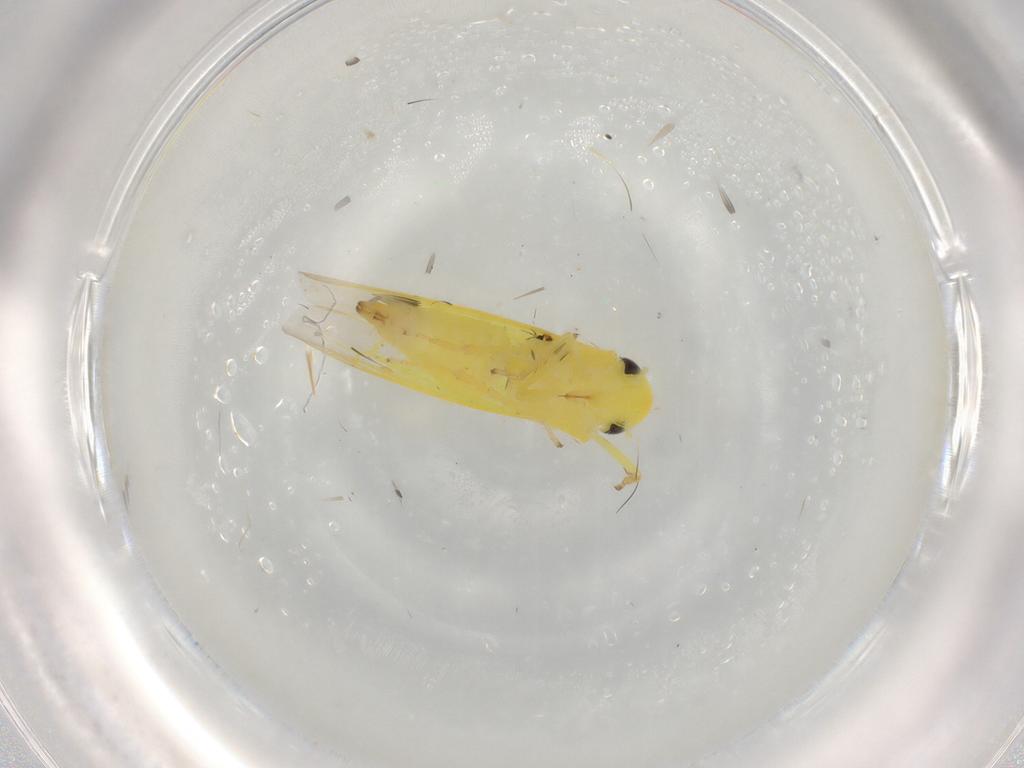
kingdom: Animalia
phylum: Arthropoda
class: Insecta
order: Hemiptera
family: Cicadellidae
